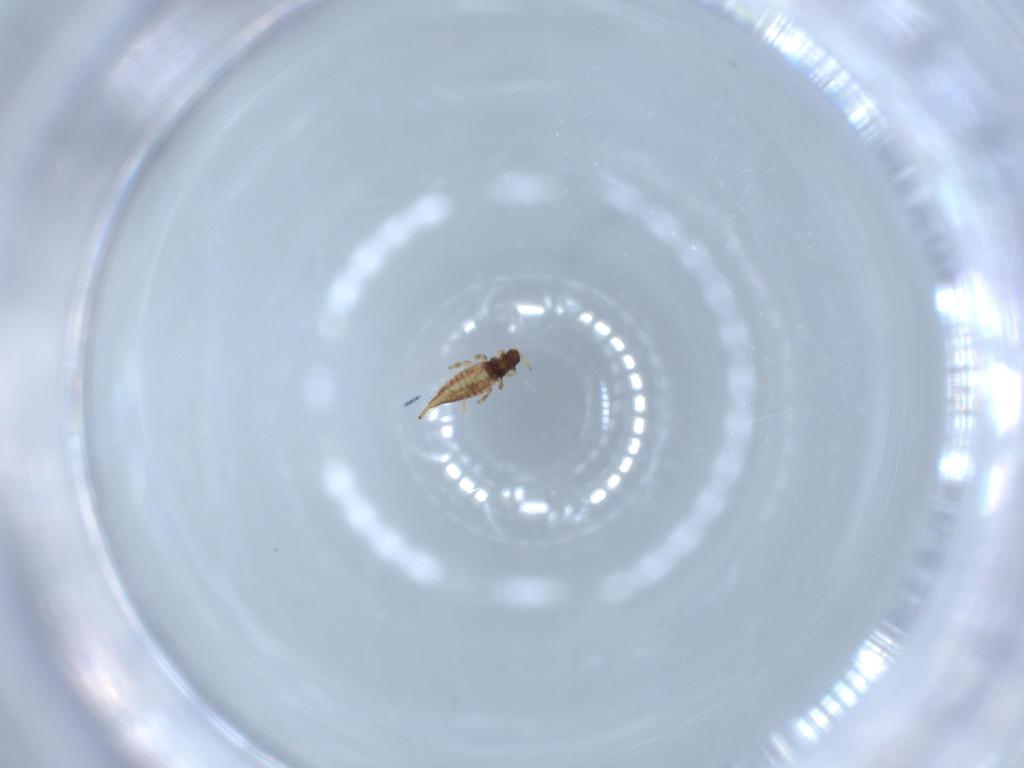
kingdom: Animalia
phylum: Arthropoda
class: Insecta
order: Thysanoptera
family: Phlaeothripidae
